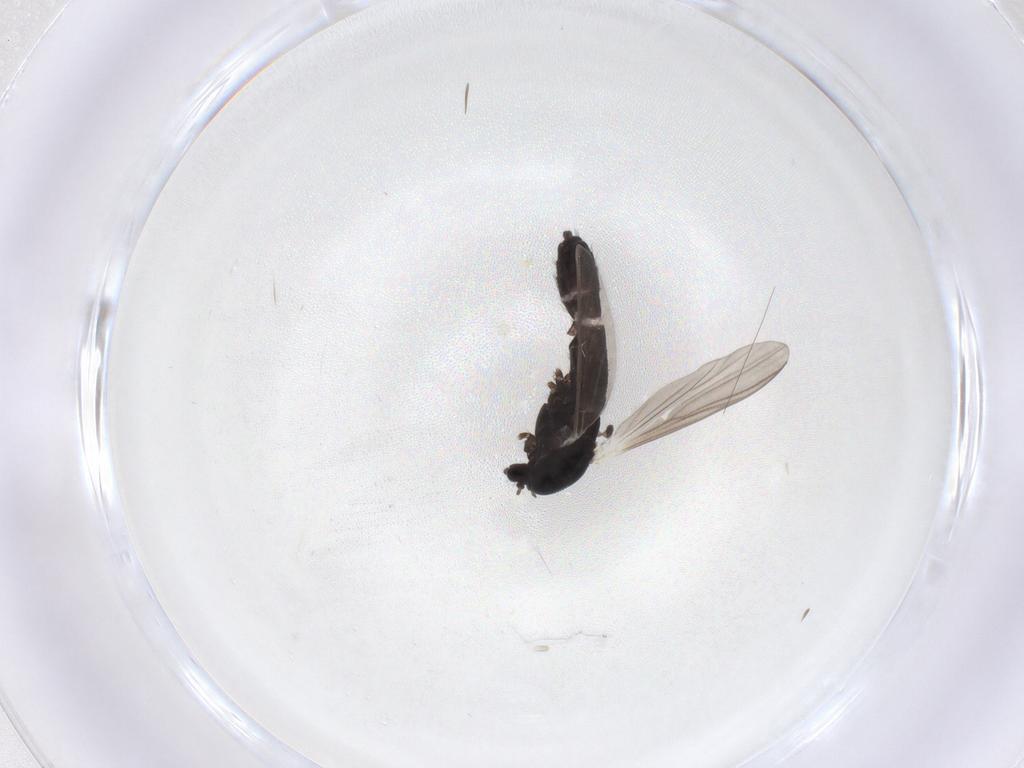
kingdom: Animalia
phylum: Arthropoda
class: Insecta
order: Diptera
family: Chironomidae
